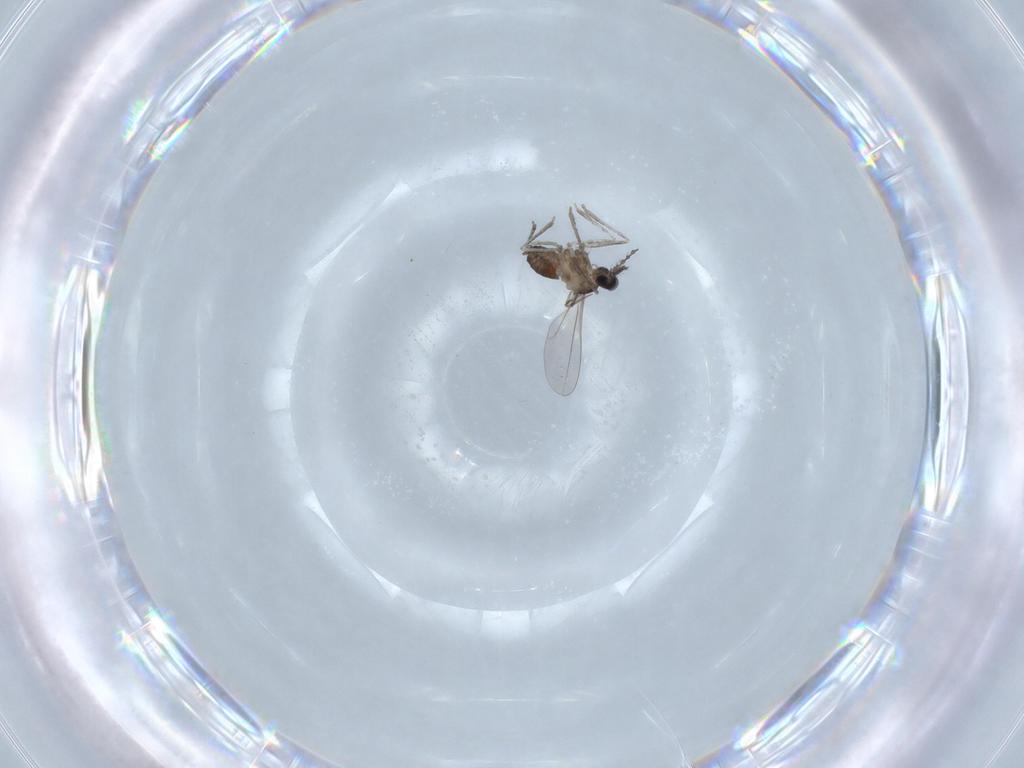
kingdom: Animalia
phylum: Arthropoda
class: Insecta
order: Diptera
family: Cecidomyiidae
